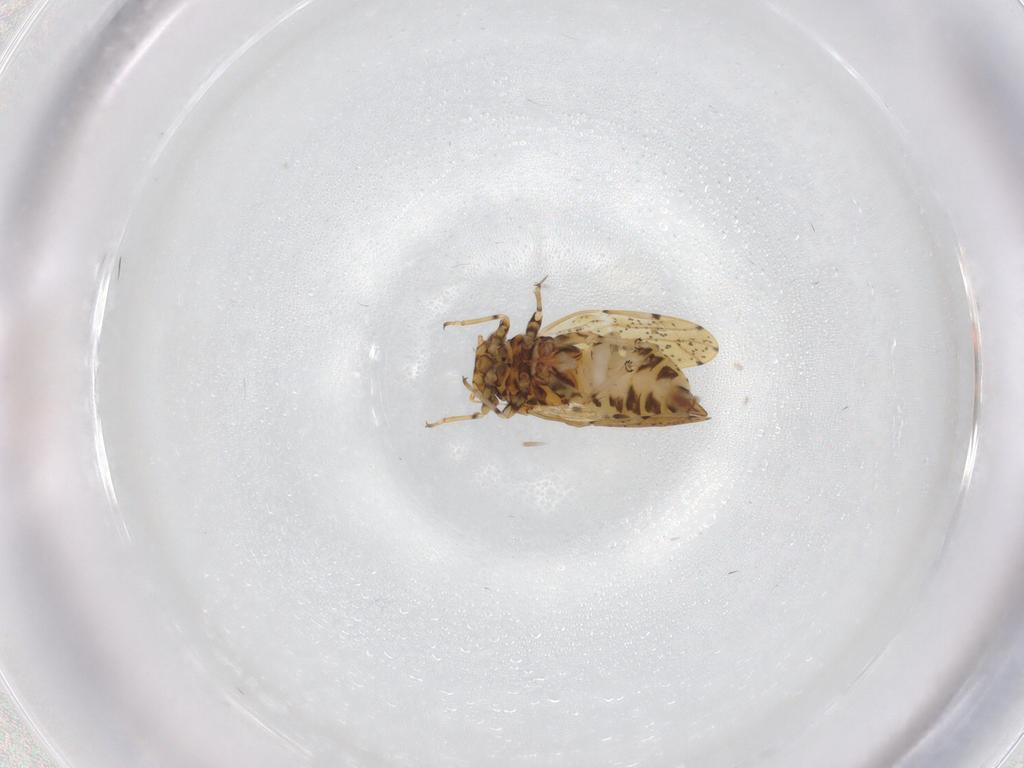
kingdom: Animalia
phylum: Arthropoda
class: Insecta
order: Hemiptera
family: Psylloidea_incertae_sedis
